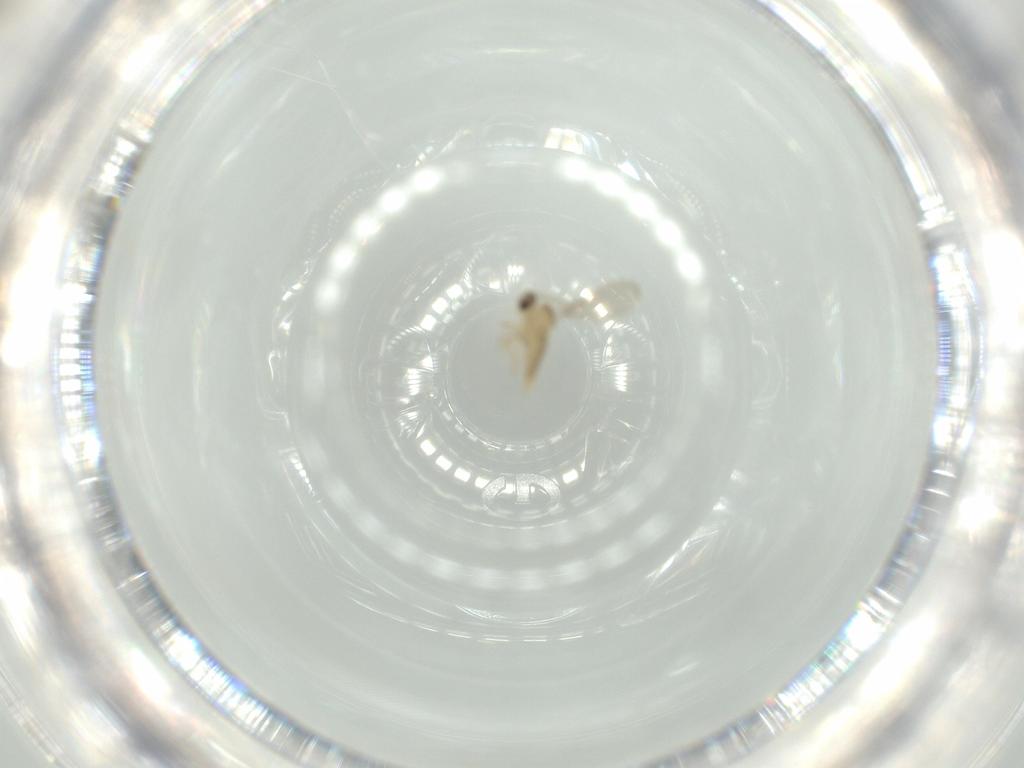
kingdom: Animalia
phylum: Arthropoda
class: Insecta
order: Diptera
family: Cecidomyiidae
